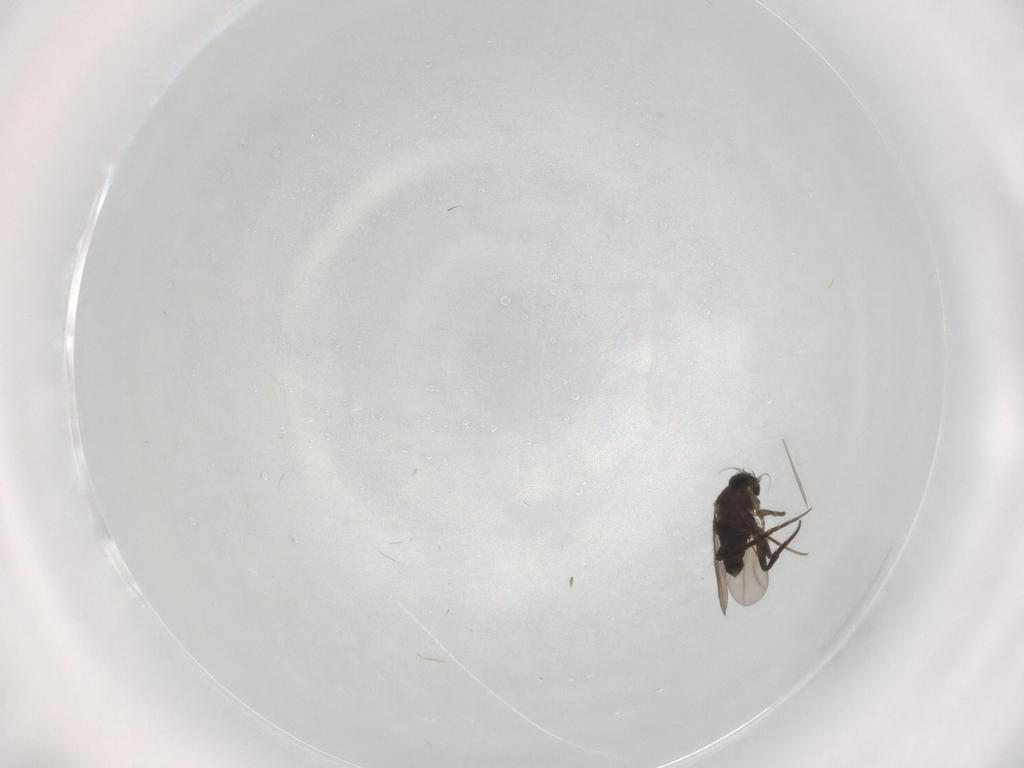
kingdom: Animalia
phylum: Arthropoda
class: Insecta
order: Diptera
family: Phoridae
